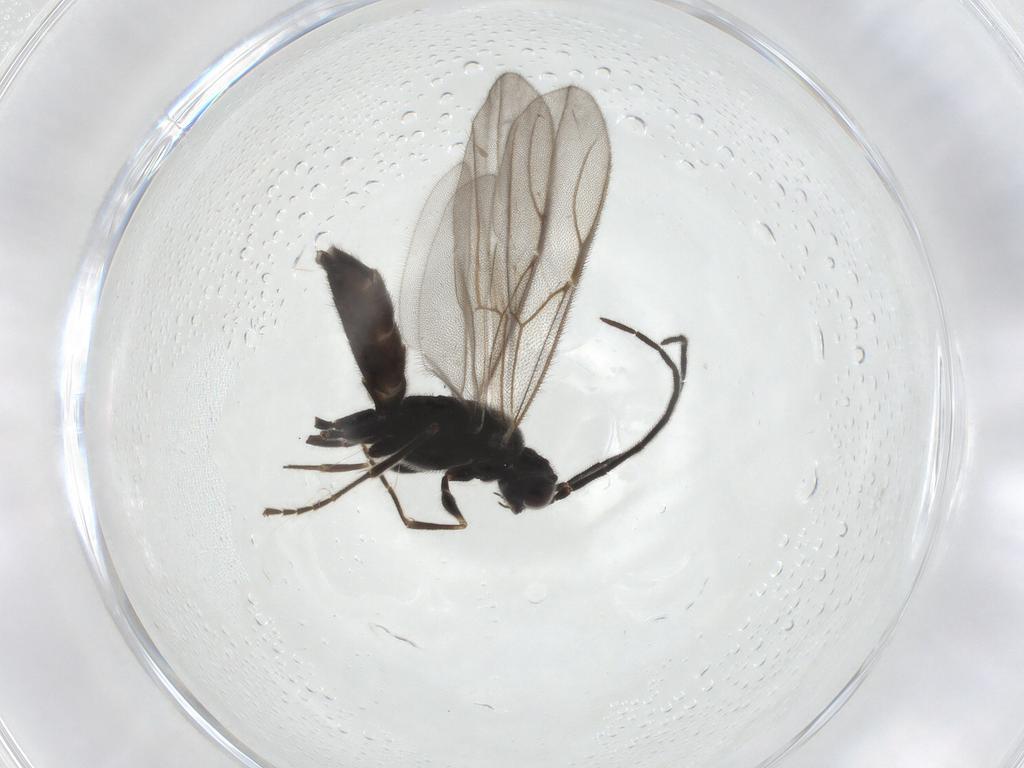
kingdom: Animalia
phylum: Arthropoda
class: Insecta
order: Hymenoptera
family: Dryinidae
